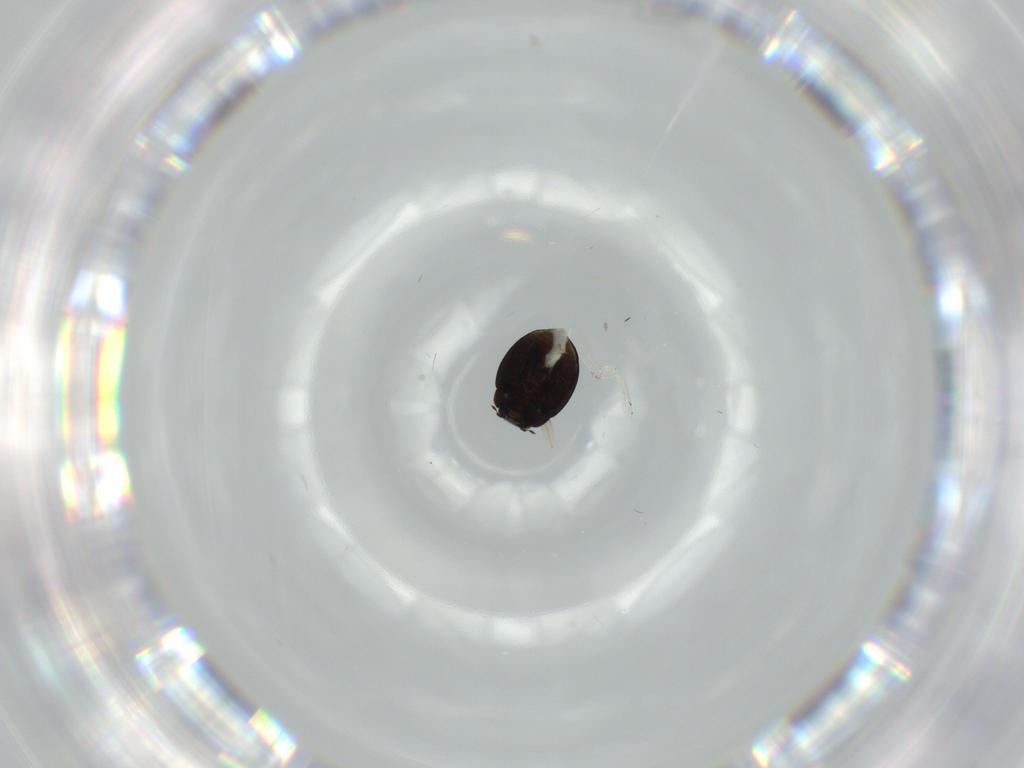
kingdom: Animalia
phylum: Arthropoda
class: Insecta
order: Coleoptera
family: Coccinellidae
